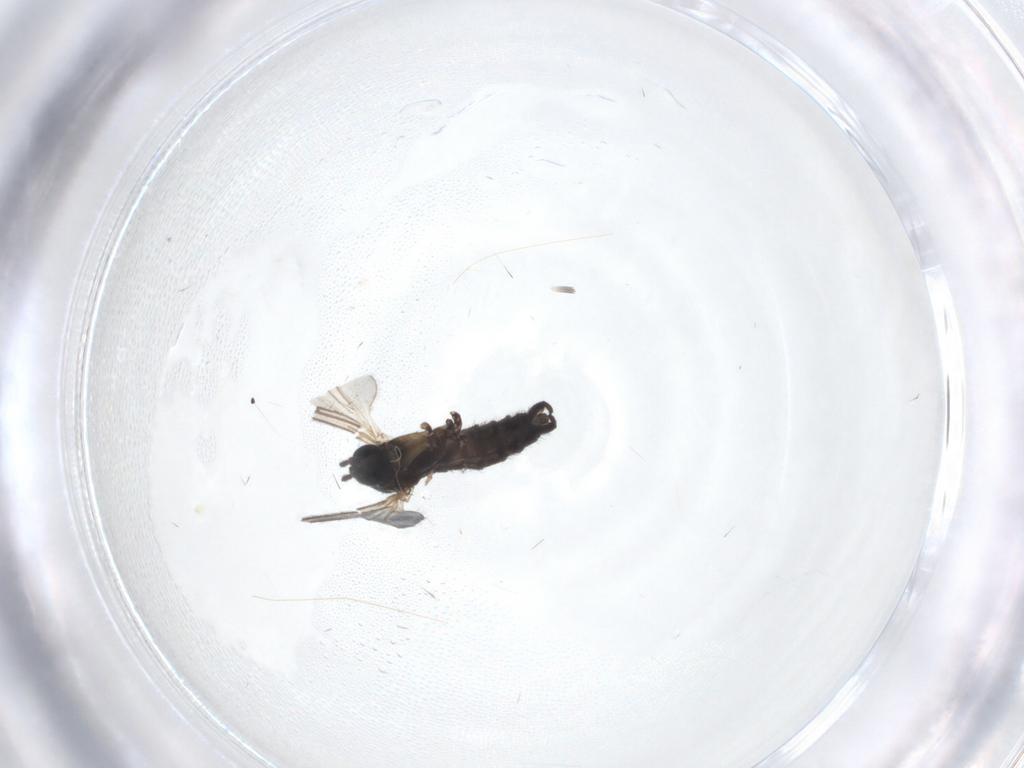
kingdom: Animalia
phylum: Arthropoda
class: Insecta
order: Diptera
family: Sciaridae
